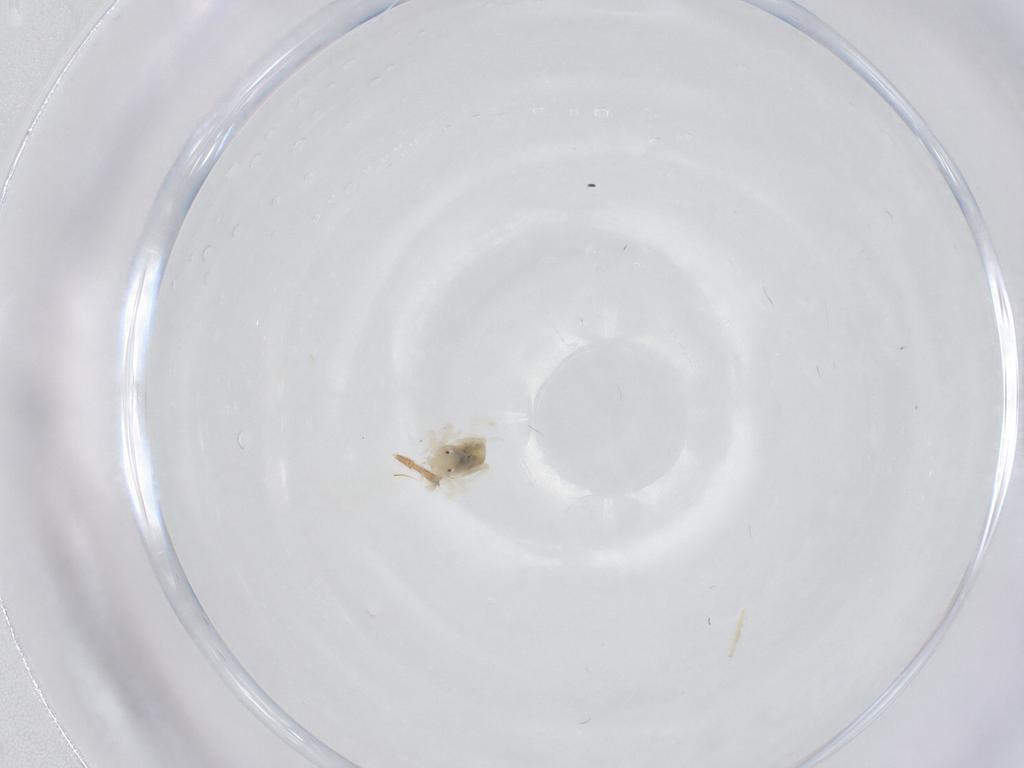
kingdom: Animalia
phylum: Arthropoda
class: Arachnida
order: Trombidiformes
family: Anystidae
